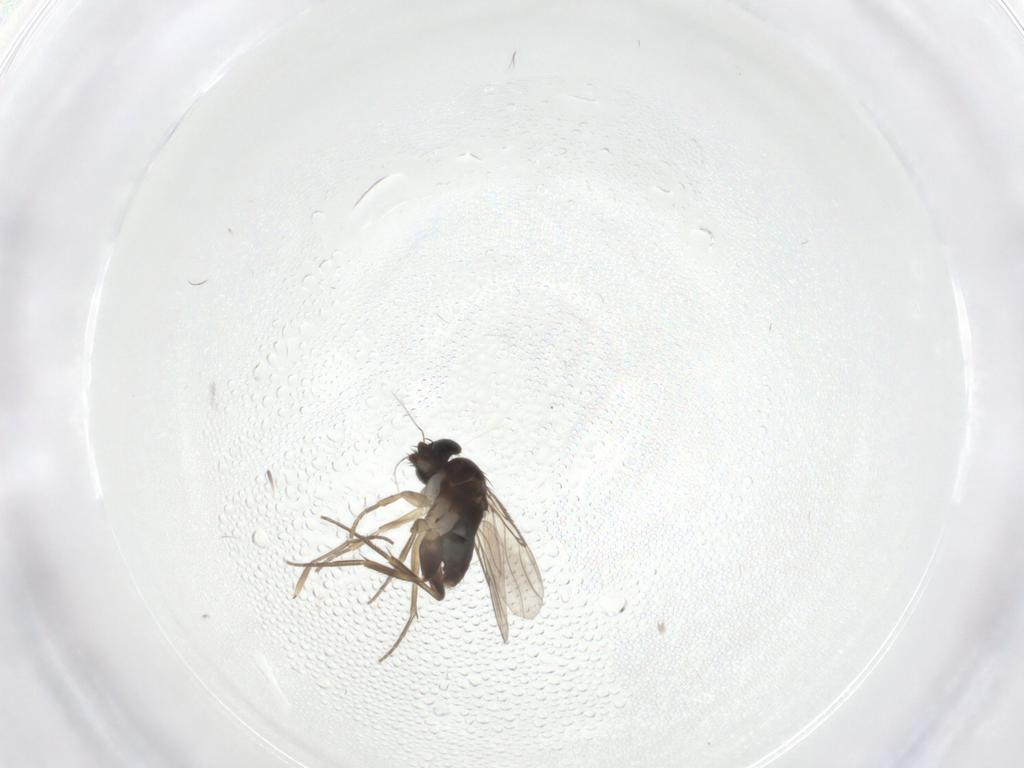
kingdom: Animalia
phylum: Arthropoda
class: Insecta
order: Diptera
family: Phoridae
